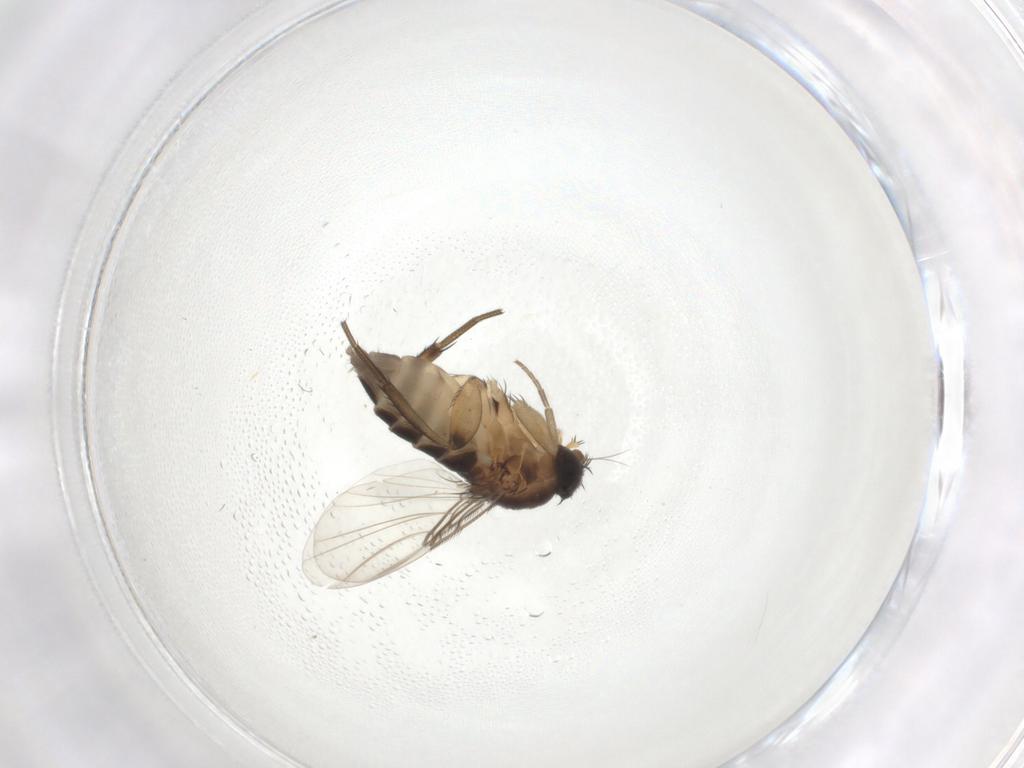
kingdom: Animalia
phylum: Arthropoda
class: Insecta
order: Diptera
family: Phoridae
